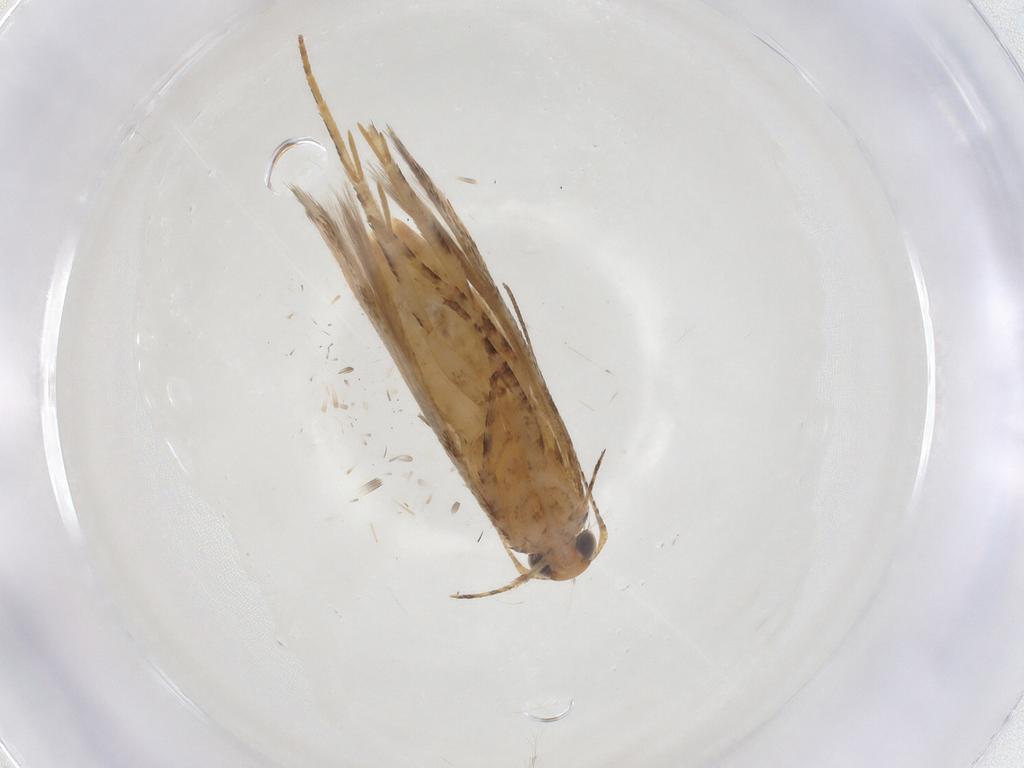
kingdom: Animalia
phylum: Arthropoda
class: Insecta
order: Lepidoptera
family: Gelechiidae
